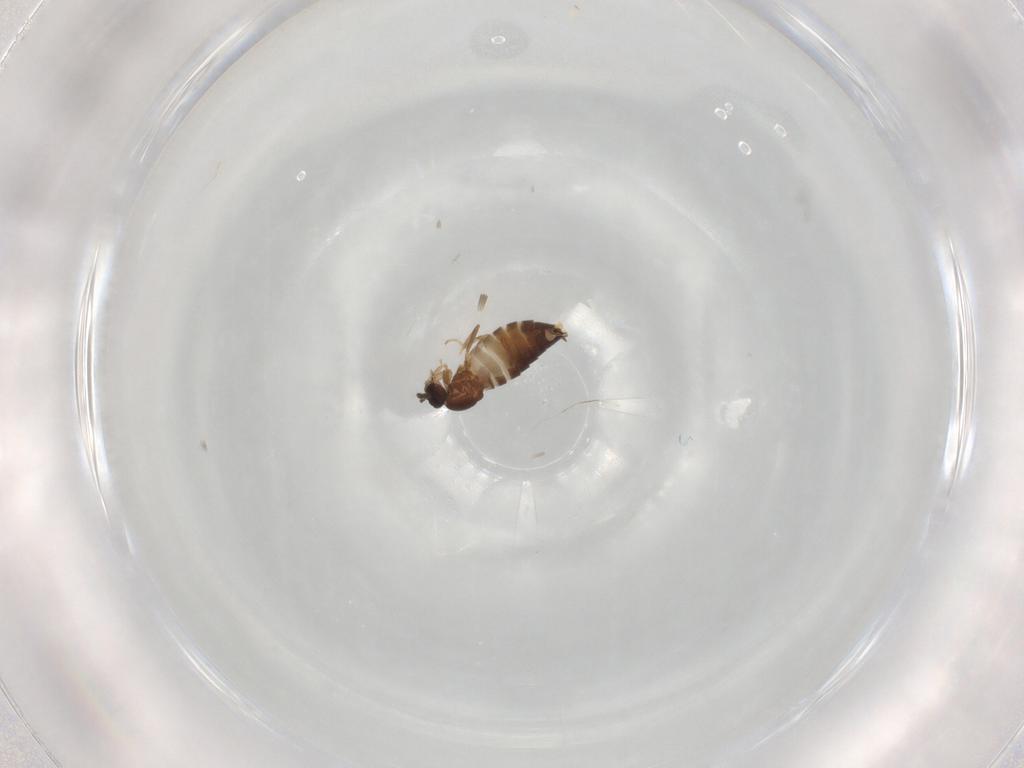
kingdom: Animalia
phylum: Arthropoda
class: Insecta
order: Diptera
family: Scatopsidae
